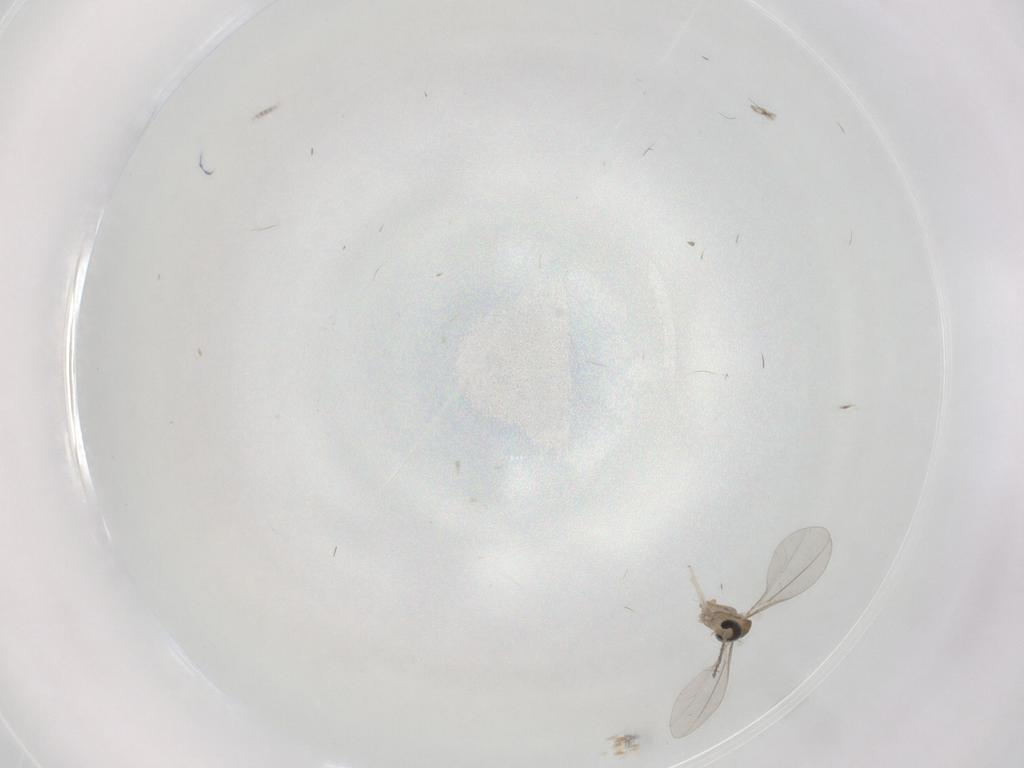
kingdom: Animalia
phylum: Arthropoda
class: Insecta
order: Diptera
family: Cecidomyiidae
